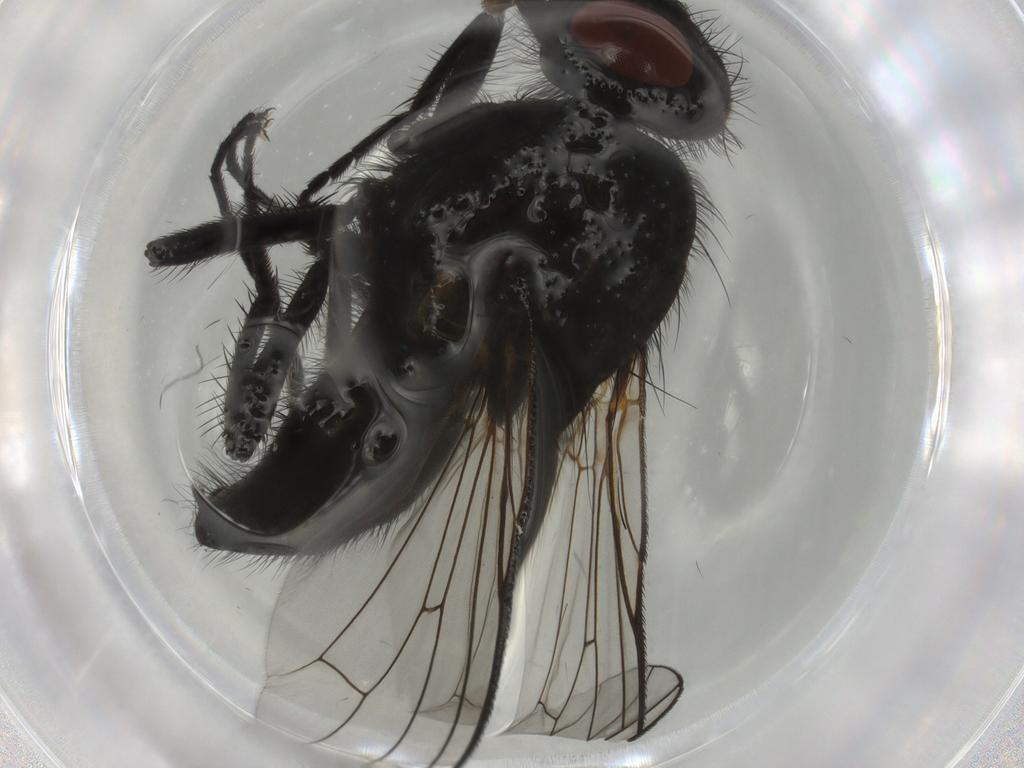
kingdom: Animalia
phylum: Arthropoda
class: Insecta
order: Diptera
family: Muscidae
